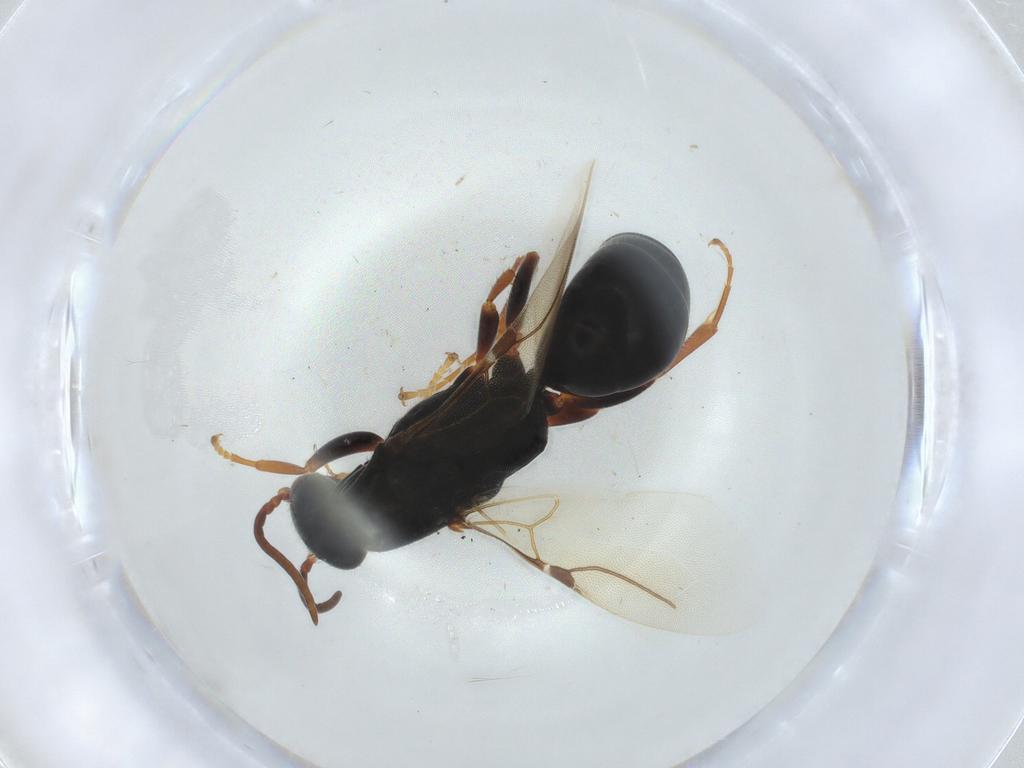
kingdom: Animalia
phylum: Arthropoda
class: Insecta
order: Hymenoptera
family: Bethylidae
